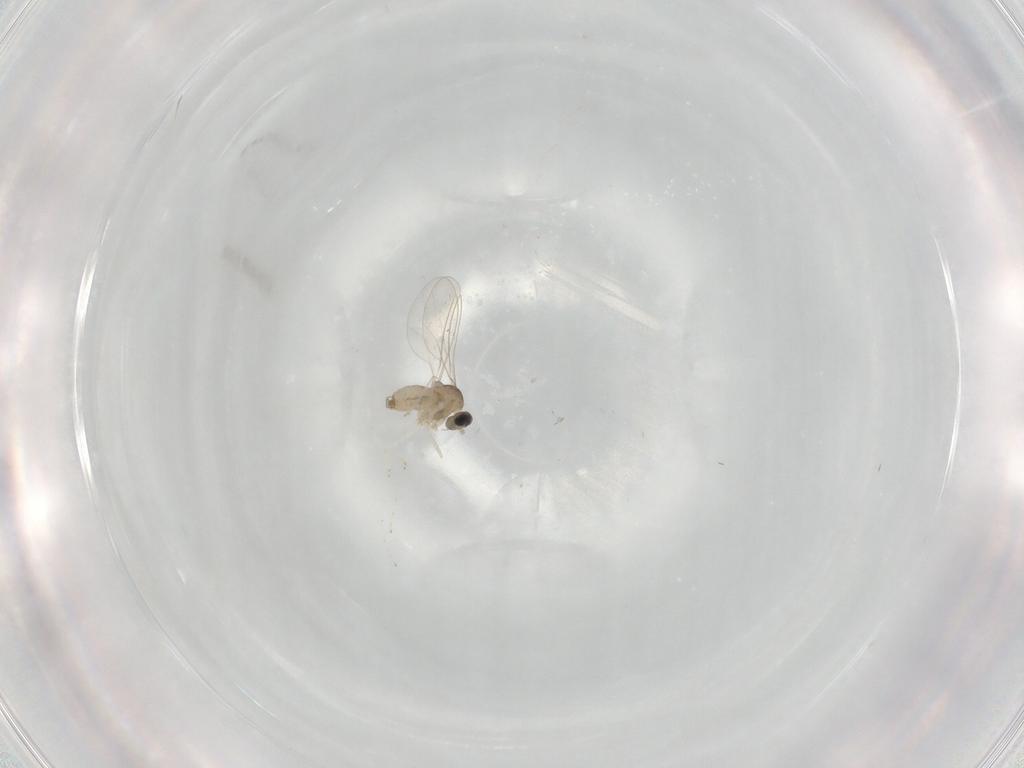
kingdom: Animalia
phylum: Arthropoda
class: Insecta
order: Diptera
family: Cecidomyiidae
